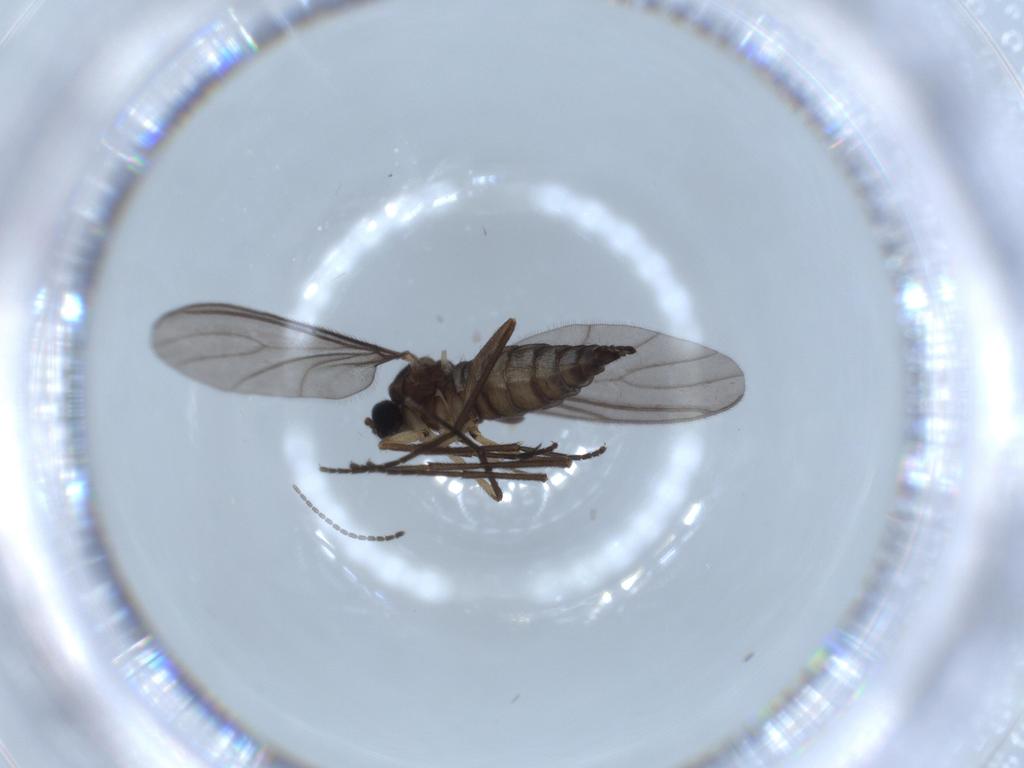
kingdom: Animalia
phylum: Arthropoda
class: Insecta
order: Diptera
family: Sciaridae
